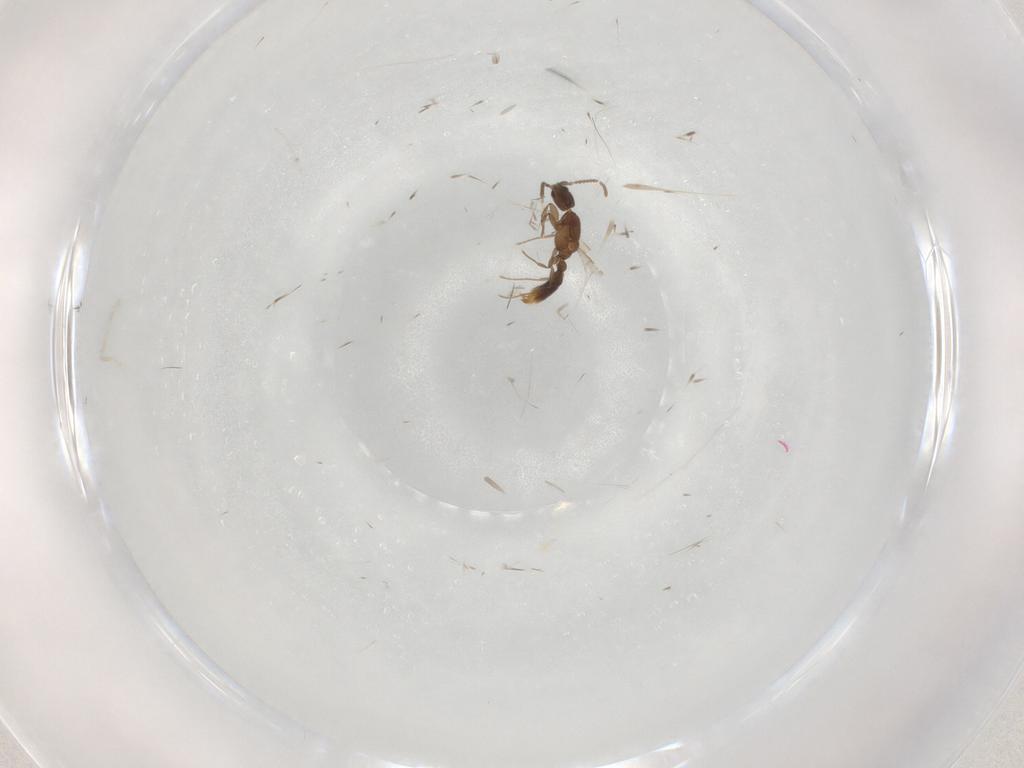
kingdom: Animalia
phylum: Arthropoda
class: Insecta
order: Hymenoptera
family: Formicidae
